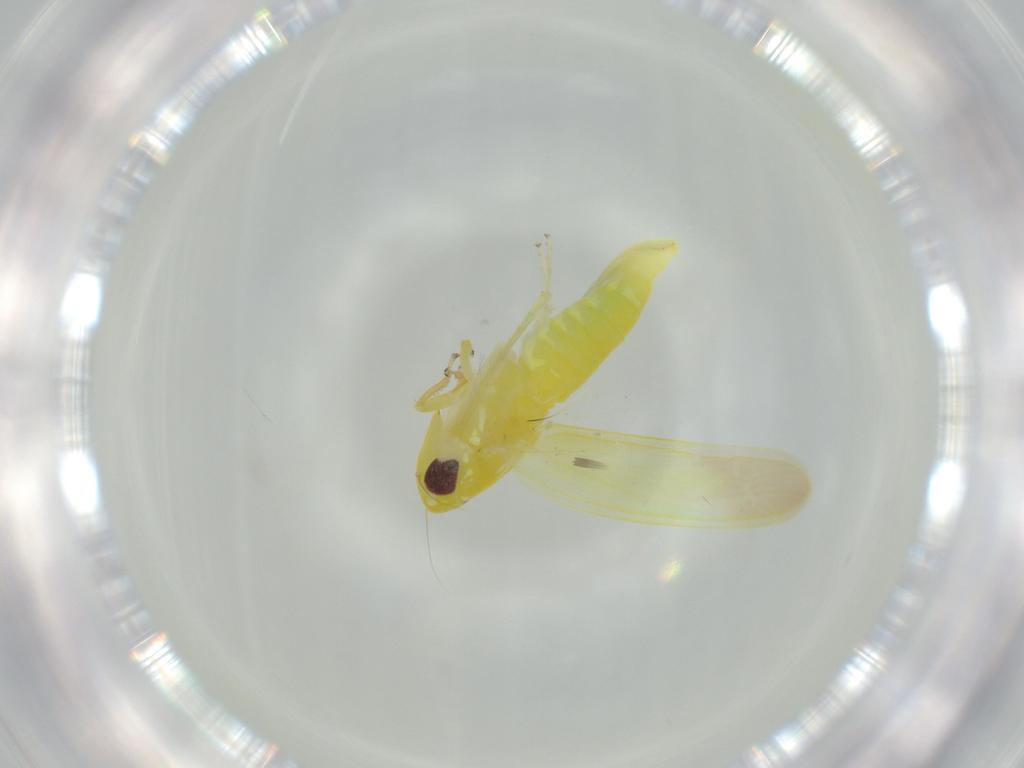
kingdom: Animalia
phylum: Arthropoda
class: Insecta
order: Hemiptera
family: Cicadellidae
